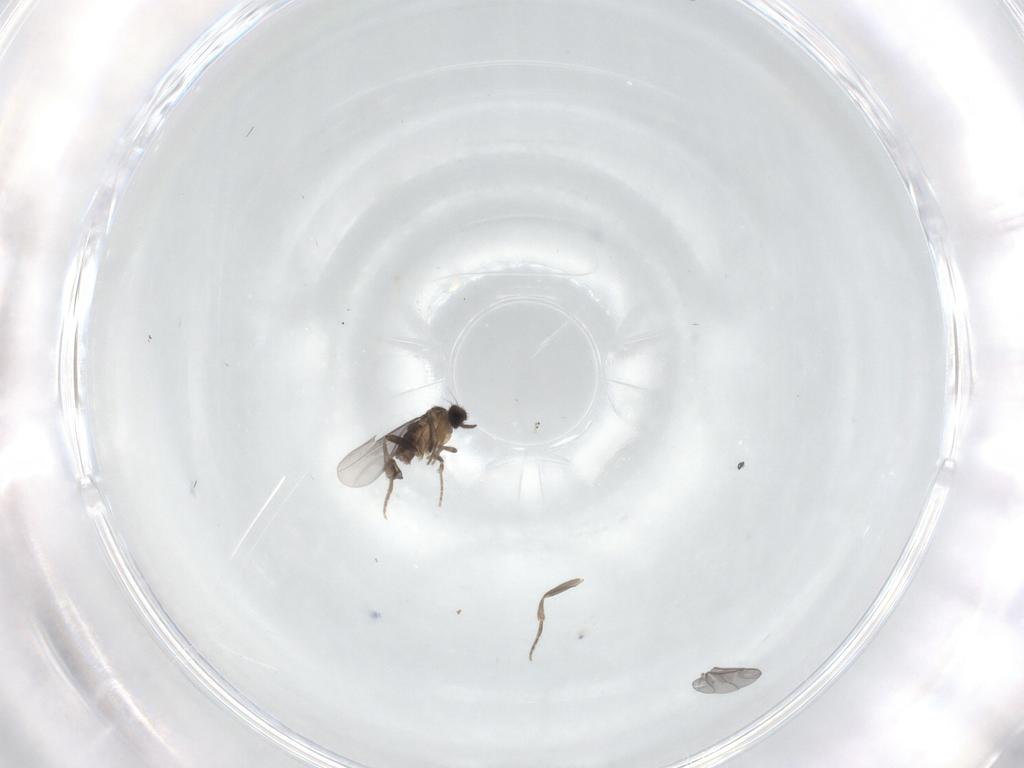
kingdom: Animalia
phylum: Arthropoda
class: Insecta
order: Diptera
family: Psychodidae
